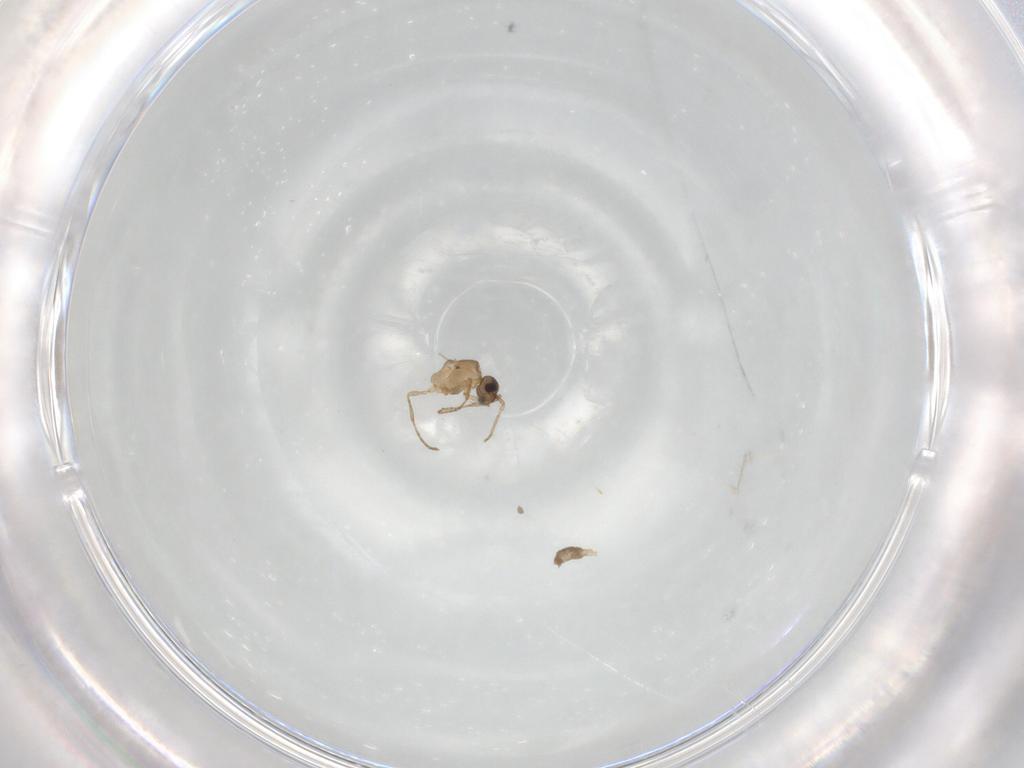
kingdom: Animalia
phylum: Arthropoda
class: Insecta
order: Hymenoptera
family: Formicidae
